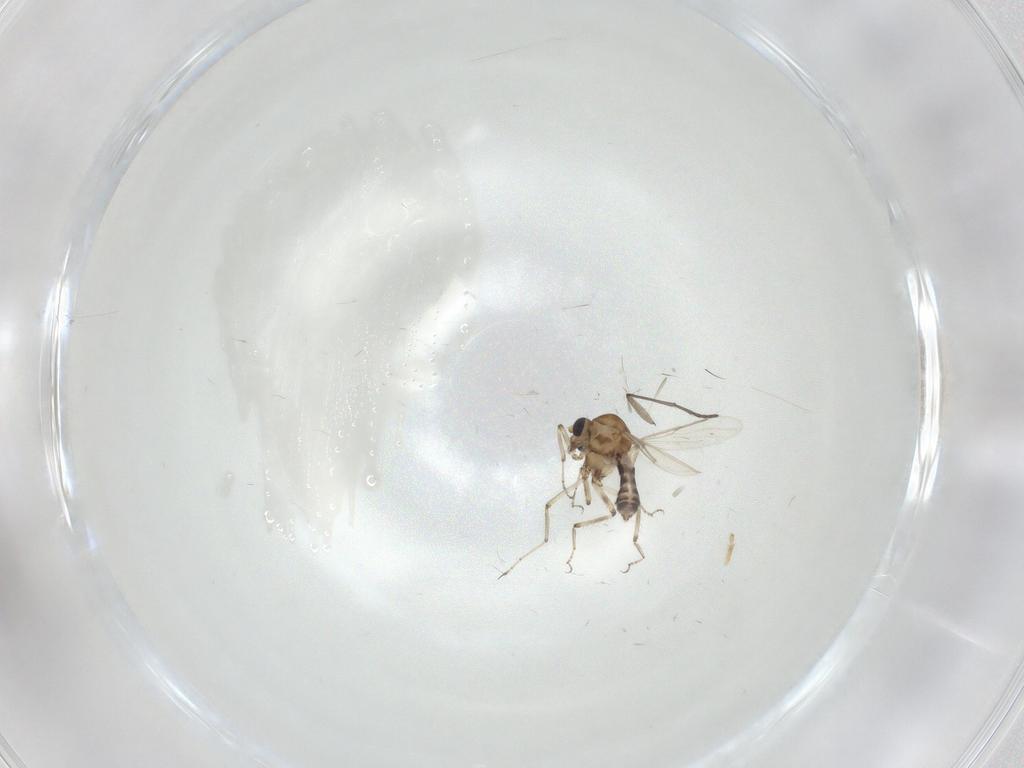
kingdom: Animalia
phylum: Arthropoda
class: Insecta
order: Diptera
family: Ceratopogonidae
